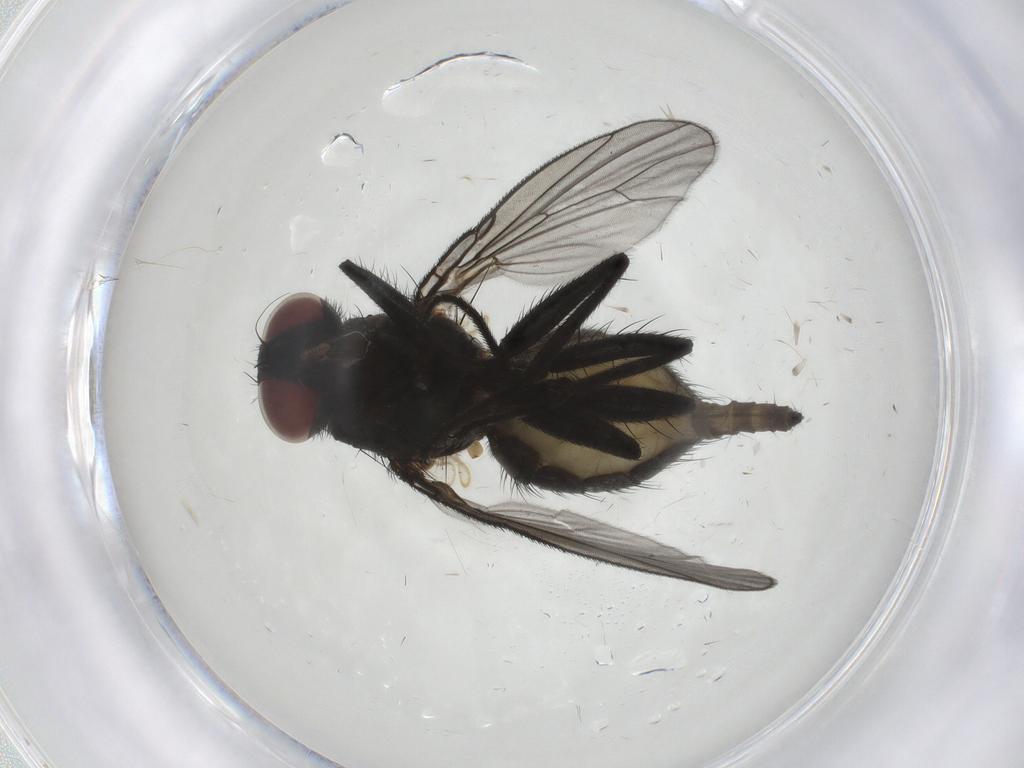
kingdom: Animalia
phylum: Arthropoda
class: Insecta
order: Diptera
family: Muscidae
